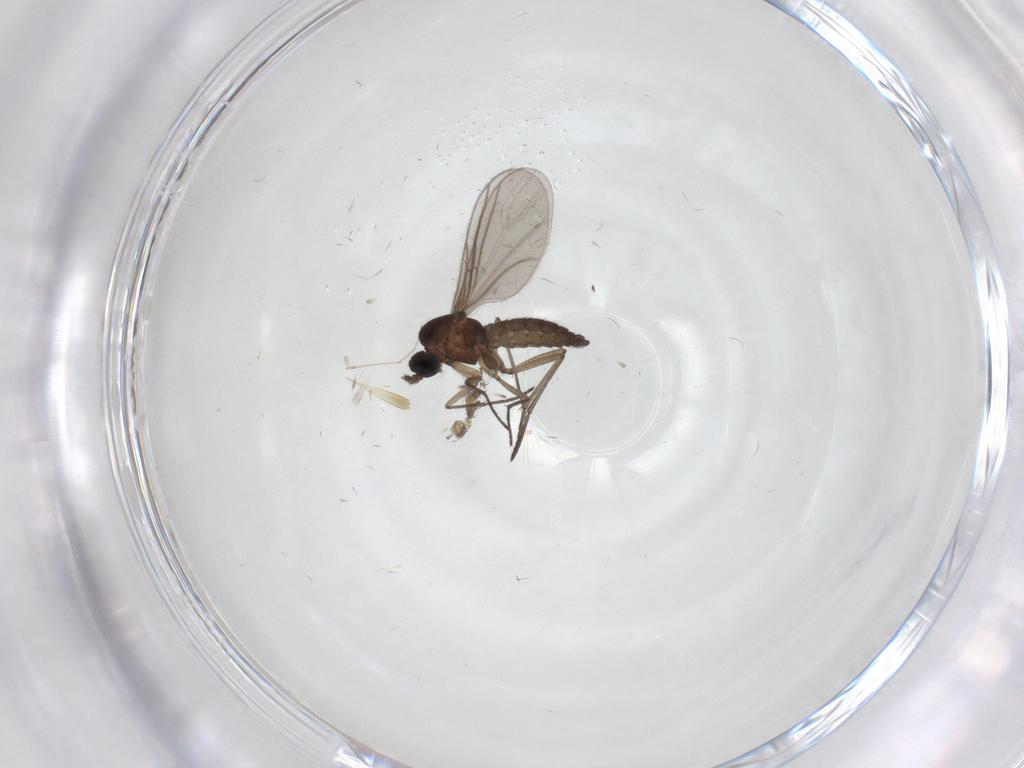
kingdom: Animalia
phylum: Arthropoda
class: Insecta
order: Diptera
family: Sciaridae
